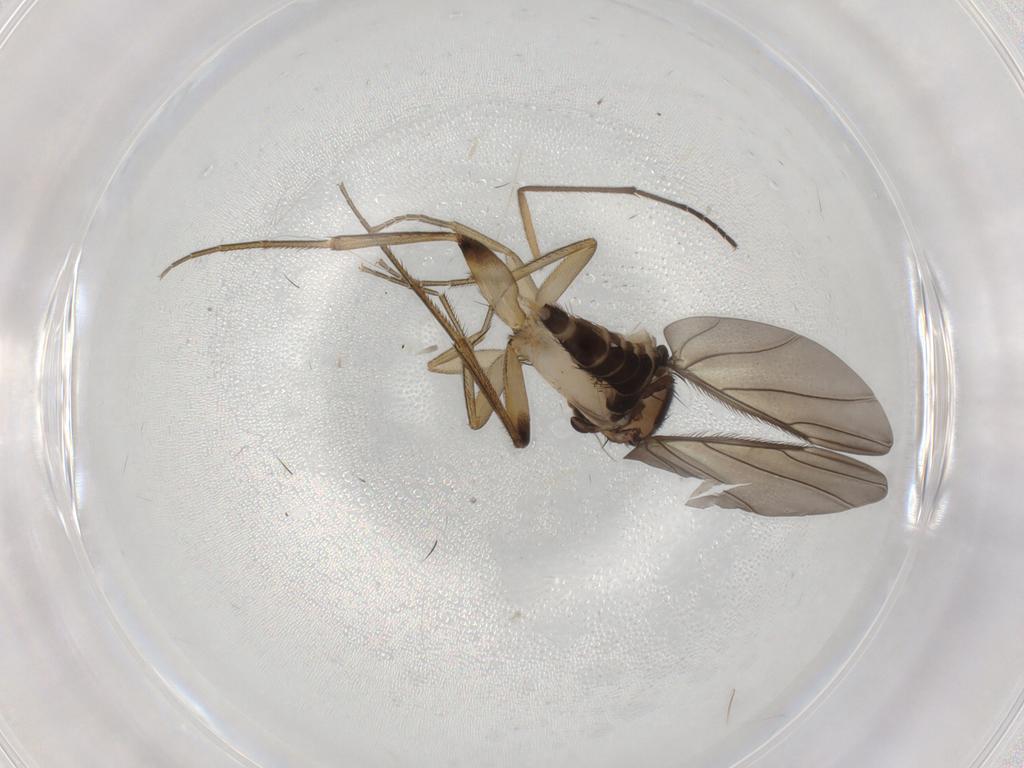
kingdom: Animalia
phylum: Arthropoda
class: Insecta
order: Diptera
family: Phoridae
